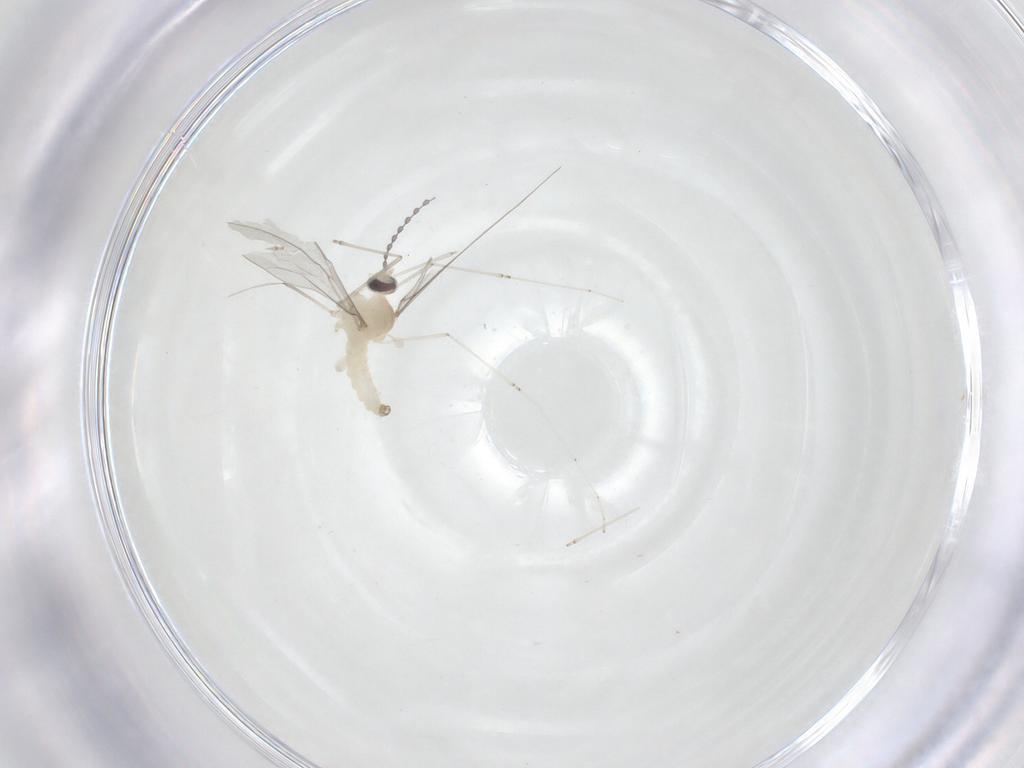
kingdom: Animalia
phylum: Arthropoda
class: Insecta
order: Diptera
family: Cecidomyiidae
